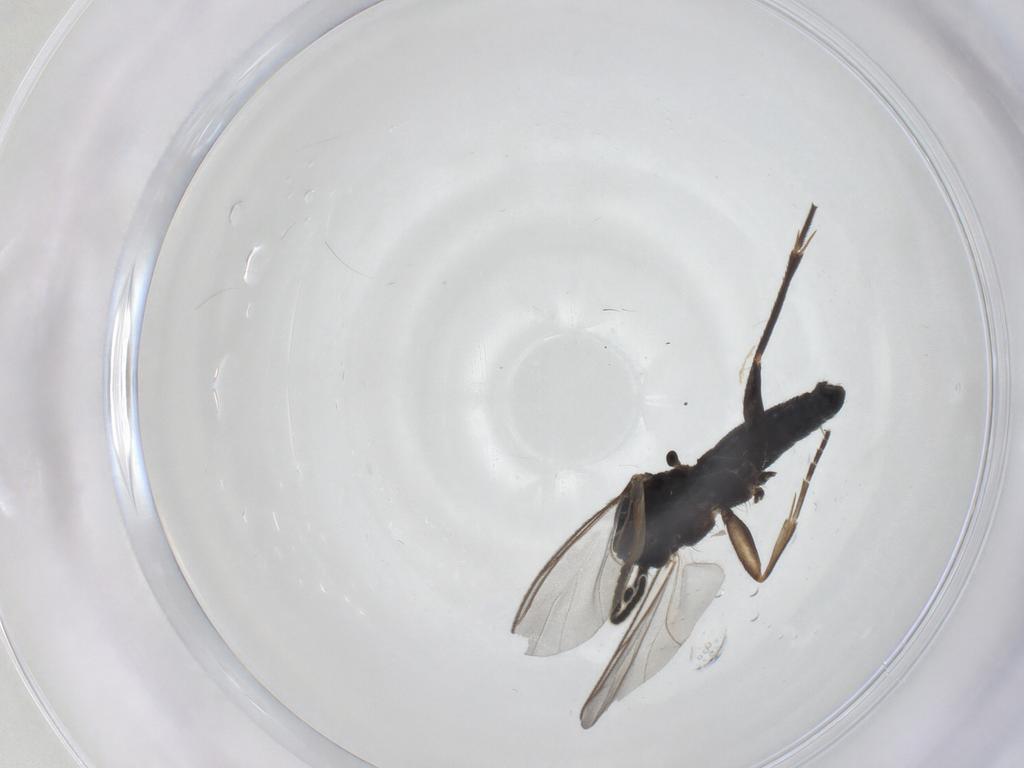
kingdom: Animalia
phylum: Arthropoda
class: Insecta
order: Diptera
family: Mycetophilidae
